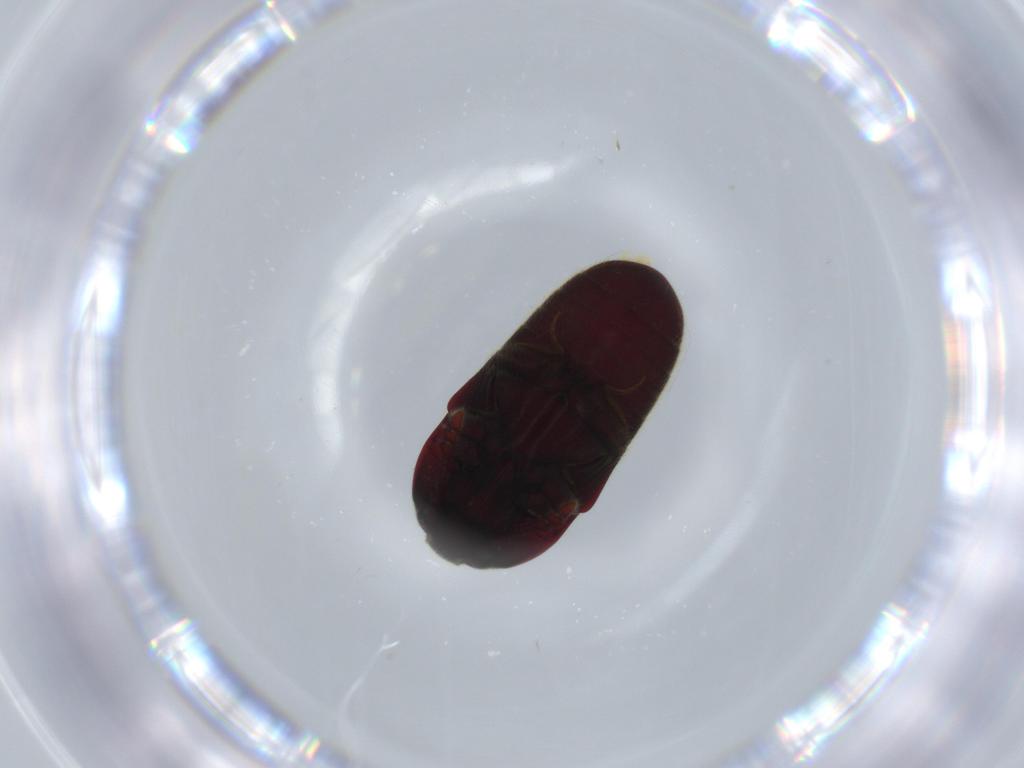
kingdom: Animalia
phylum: Arthropoda
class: Insecta
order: Coleoptera
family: Throscidae
